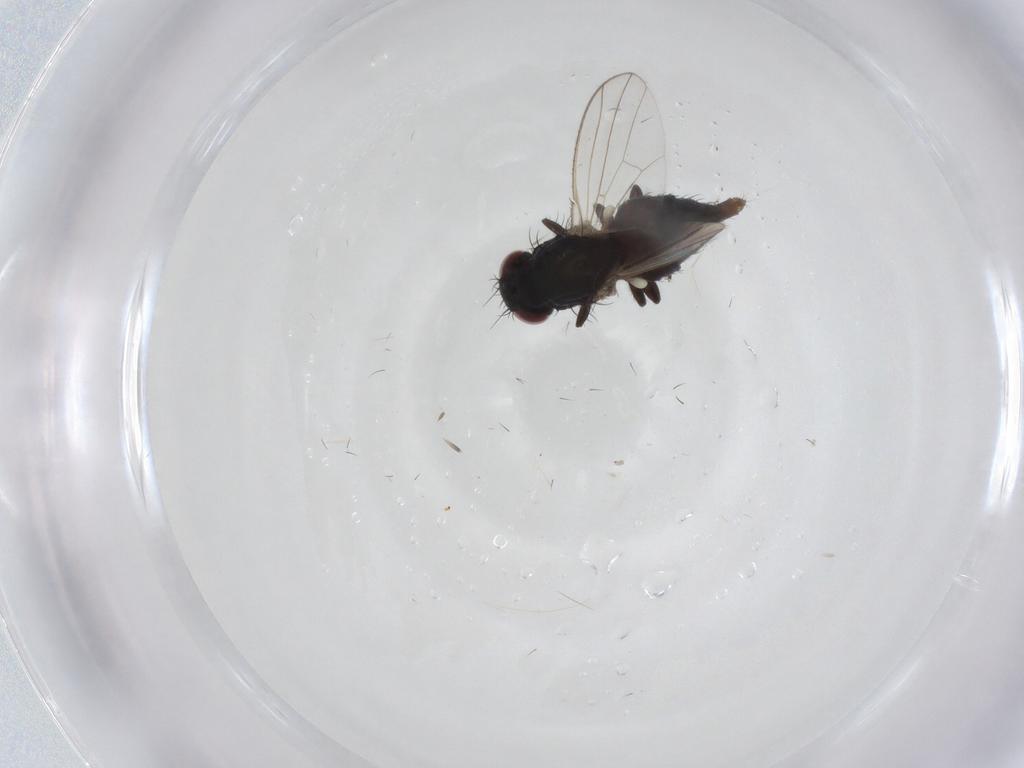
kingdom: Animalia
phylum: Arthropoda
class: Insecta
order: Diptera
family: Carnidae
